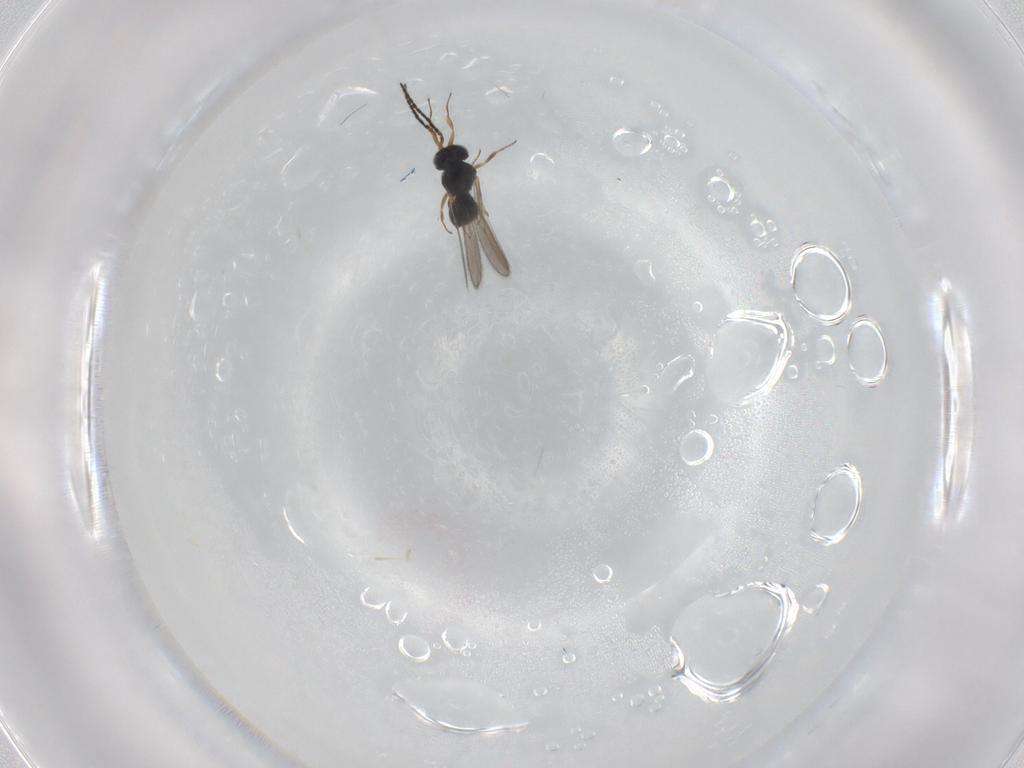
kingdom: Animalia
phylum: Arthropoda
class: Insecta
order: Hymenoptera
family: Scelionidae
